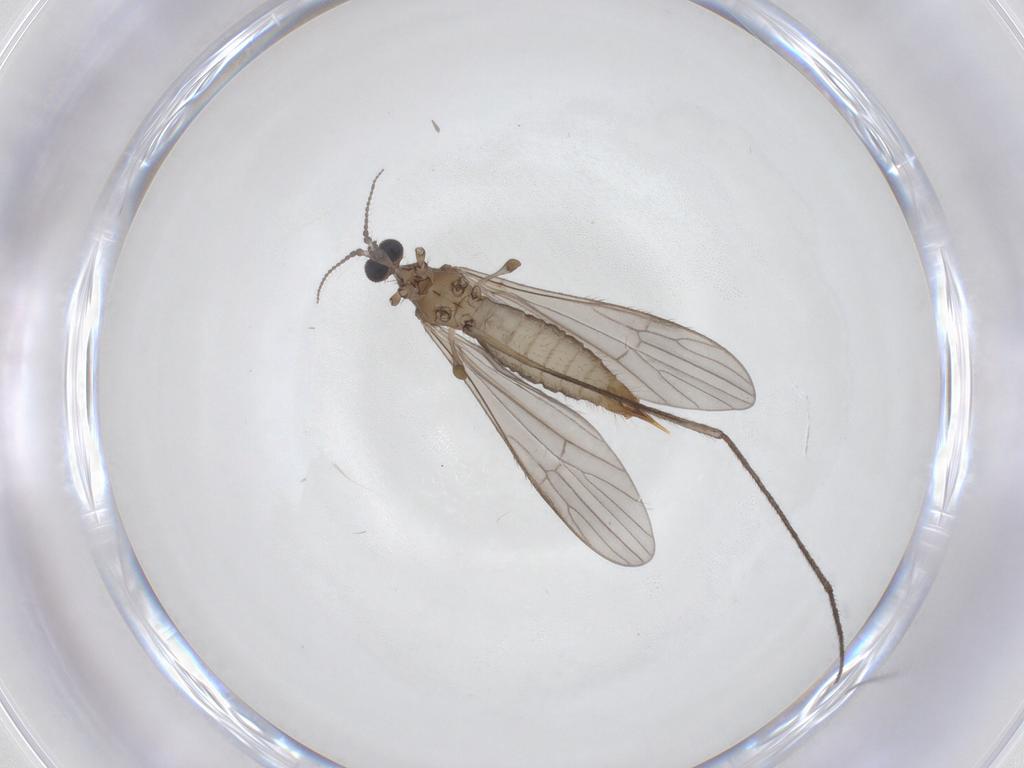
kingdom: Animalia
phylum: Arthropoda
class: Insecta
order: Diptera
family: Limoniidae
